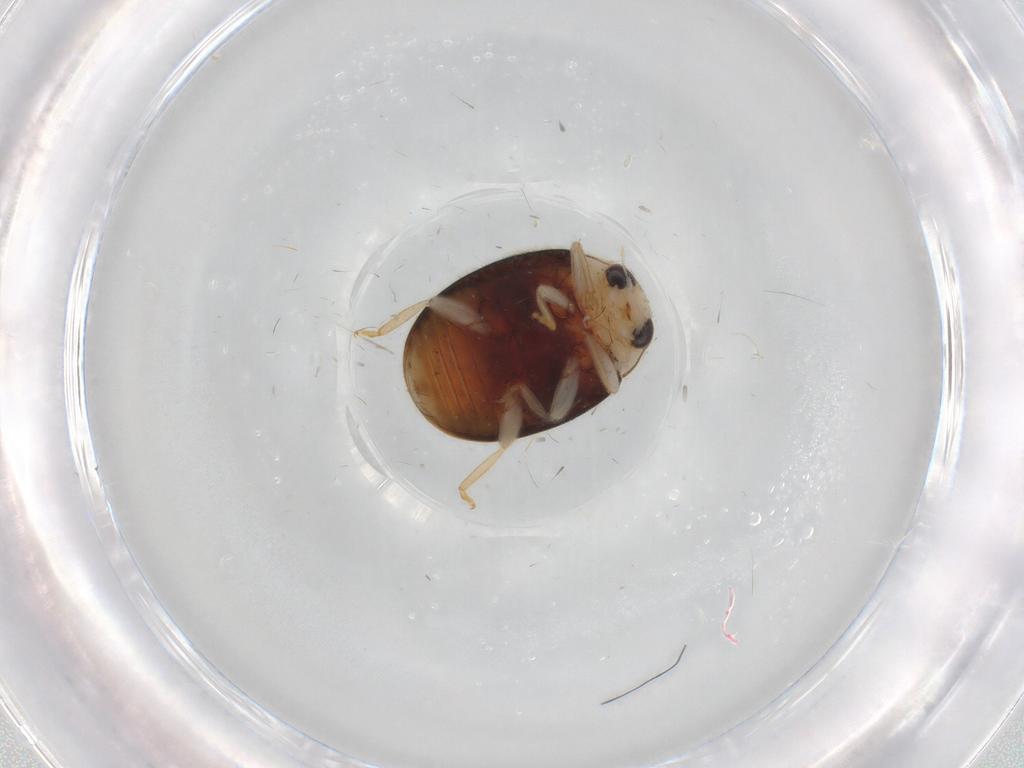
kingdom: Animalia
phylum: Arthropoda
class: Insecta
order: Coleoptera
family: Coccinellidae
